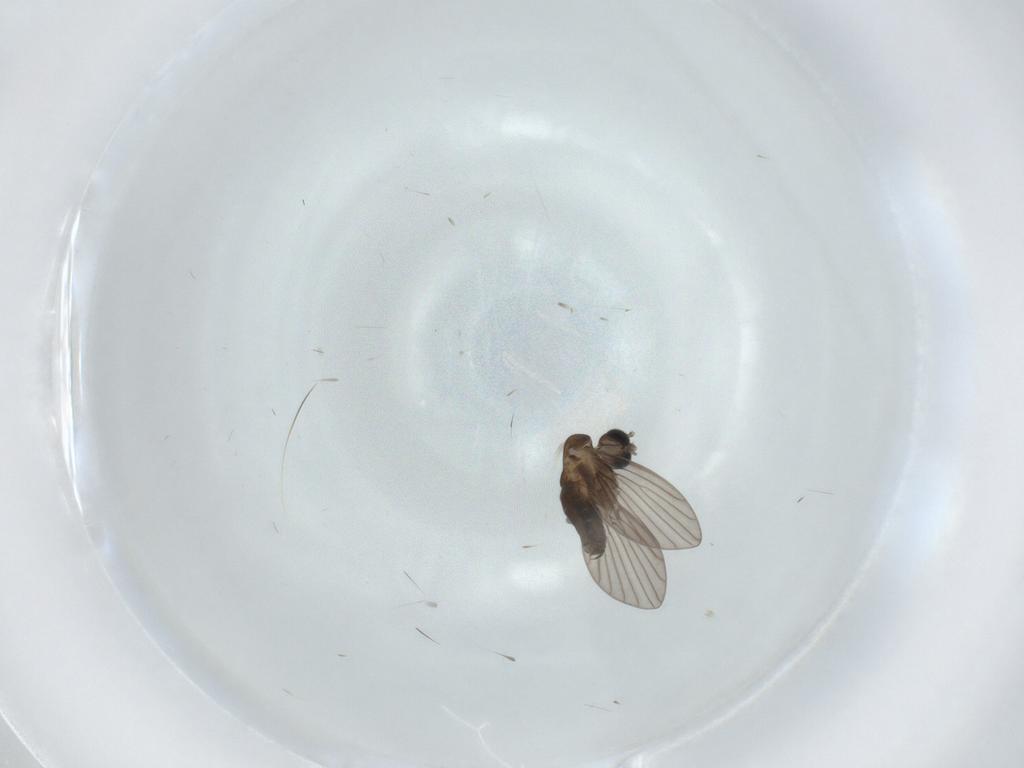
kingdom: Animalia
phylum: Arthropoda
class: Insecta
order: Diptera
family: Psychodidae
